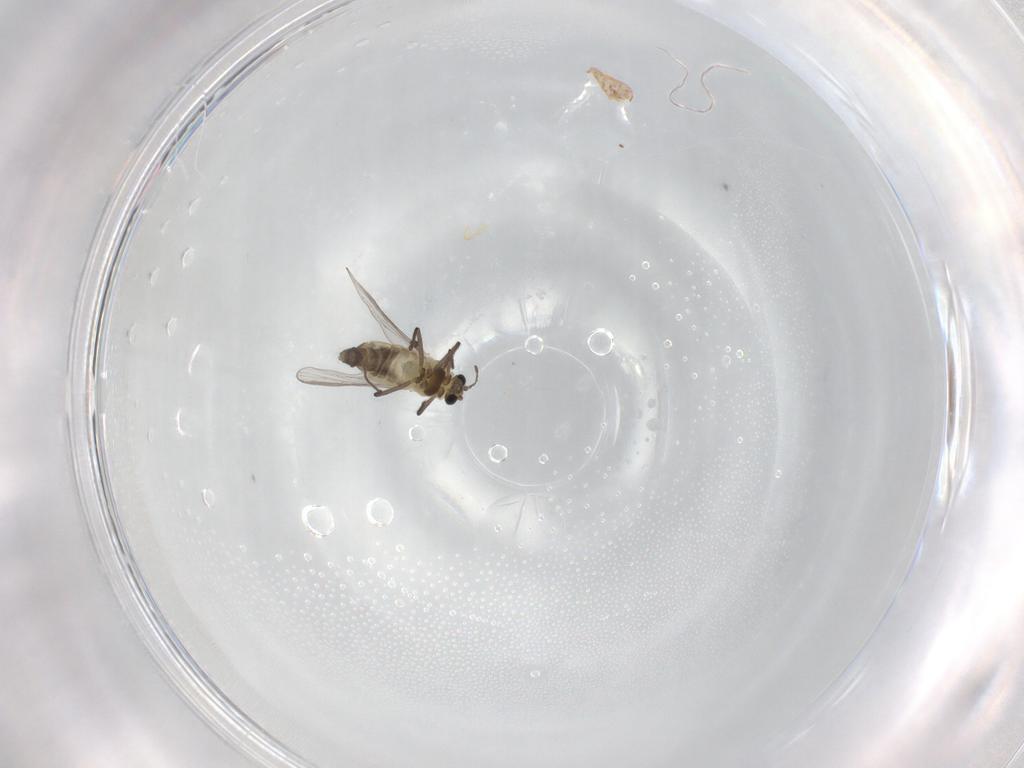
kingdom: Animalia
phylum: Arthropoda
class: Insecta
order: Diptera
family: Chironomidae
